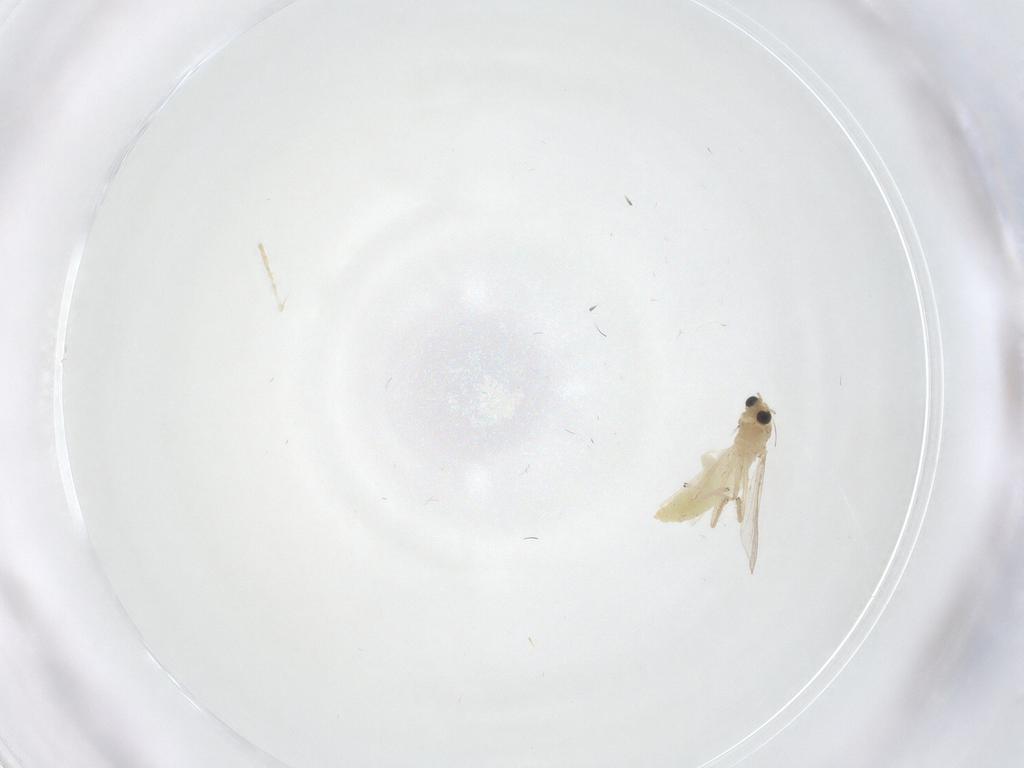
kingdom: Animalia
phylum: Arthropoda
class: Insecta
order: Diptera
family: Chironomidae
